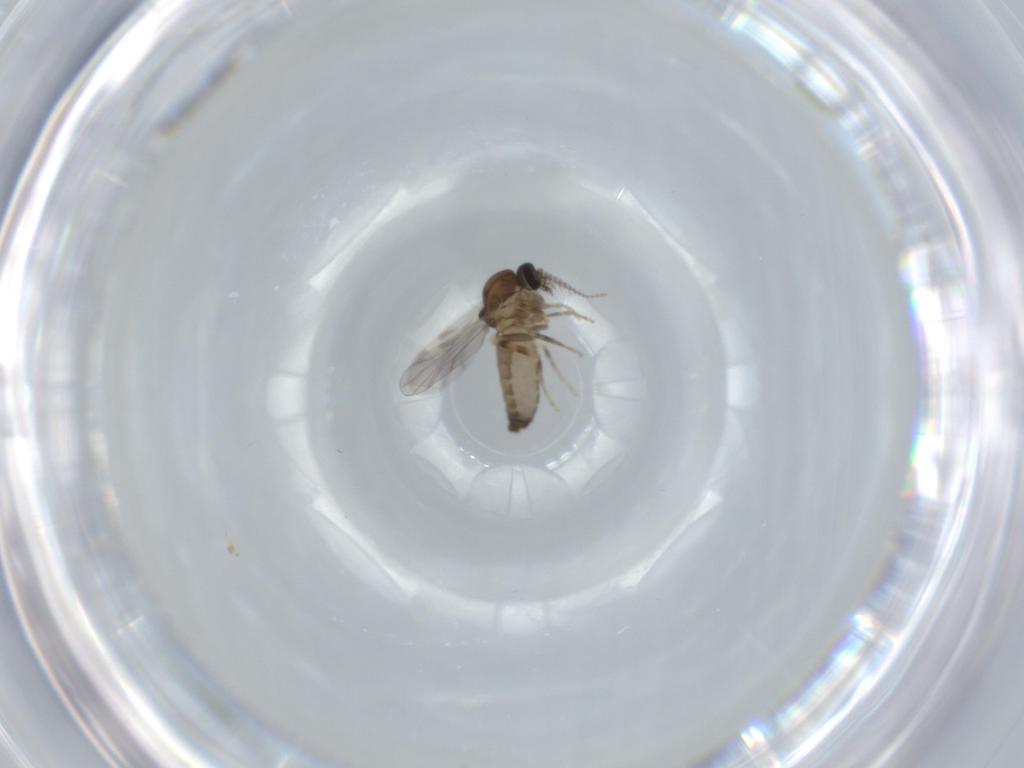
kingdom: Animalia
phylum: Arthropoda
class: Insecta
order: Diptera
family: Ceratopogonidae
